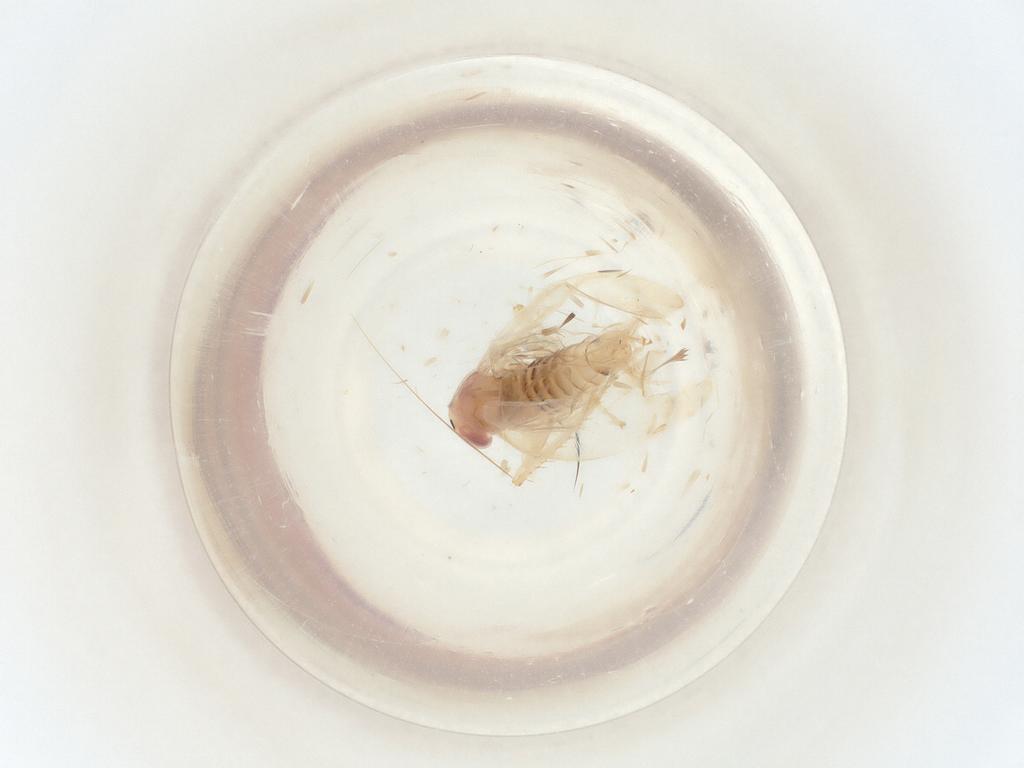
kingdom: Animalia
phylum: Arthropoda
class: Insecta
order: Hemiptera
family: Cicadellidae
